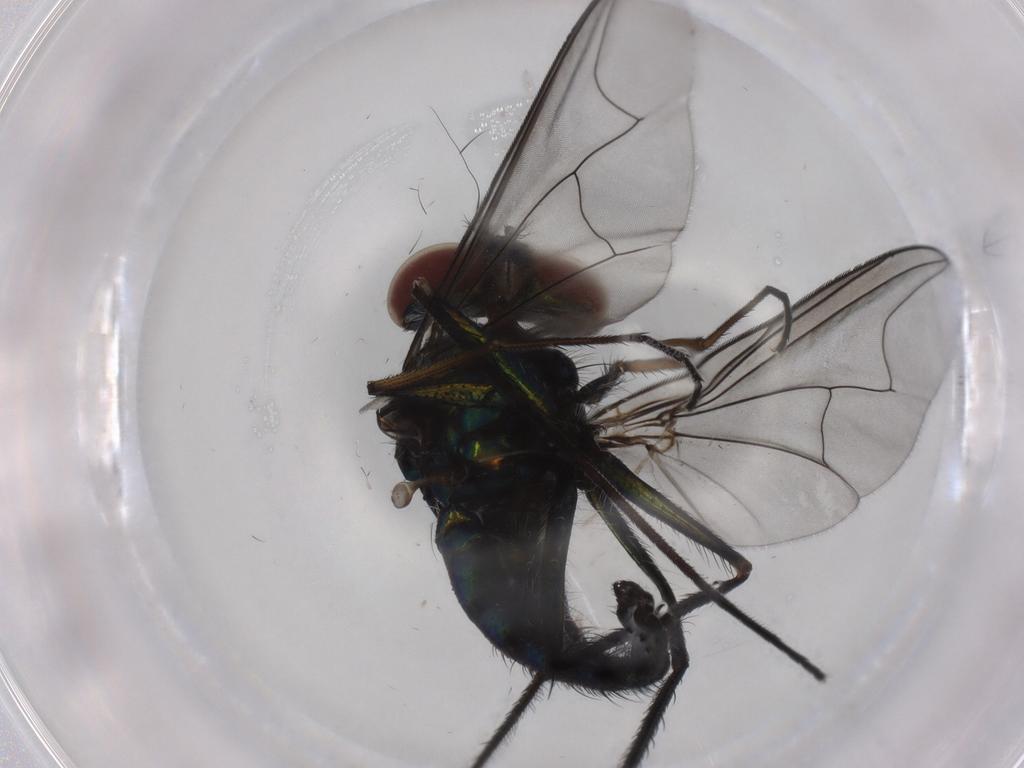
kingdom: Animalia
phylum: Arthropoda
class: Insecta
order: Diptera
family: Dolichopodidae
